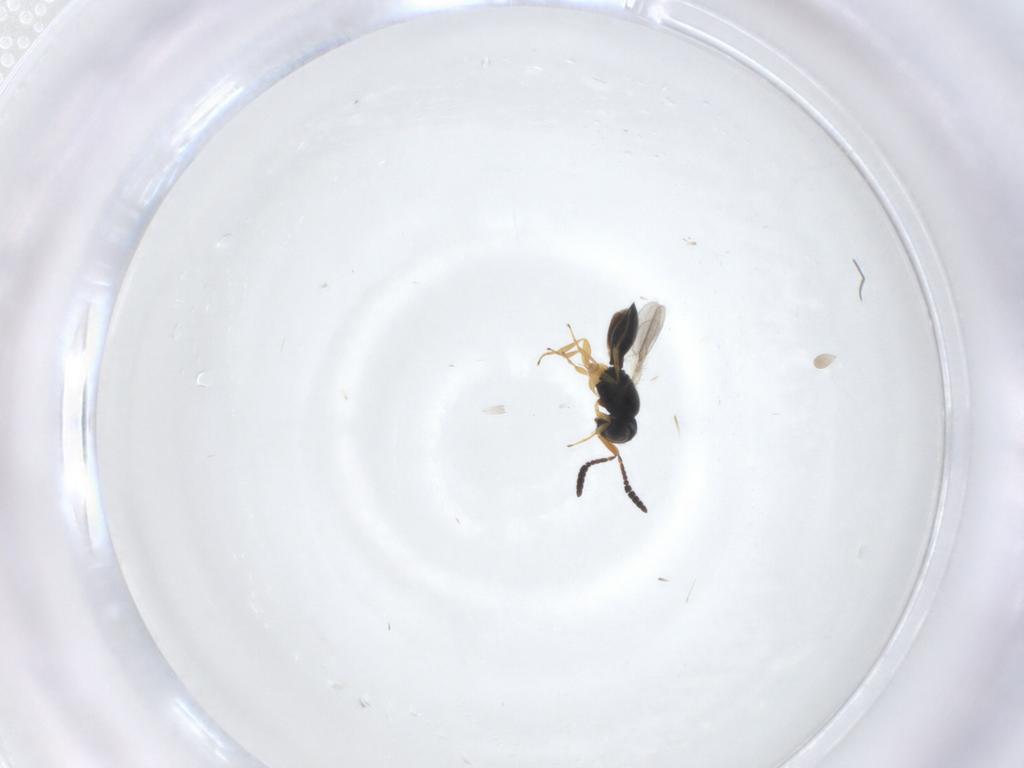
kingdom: Animalia
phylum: Arthropoda
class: Insecta
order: Hymenoptera
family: Scelionidae
